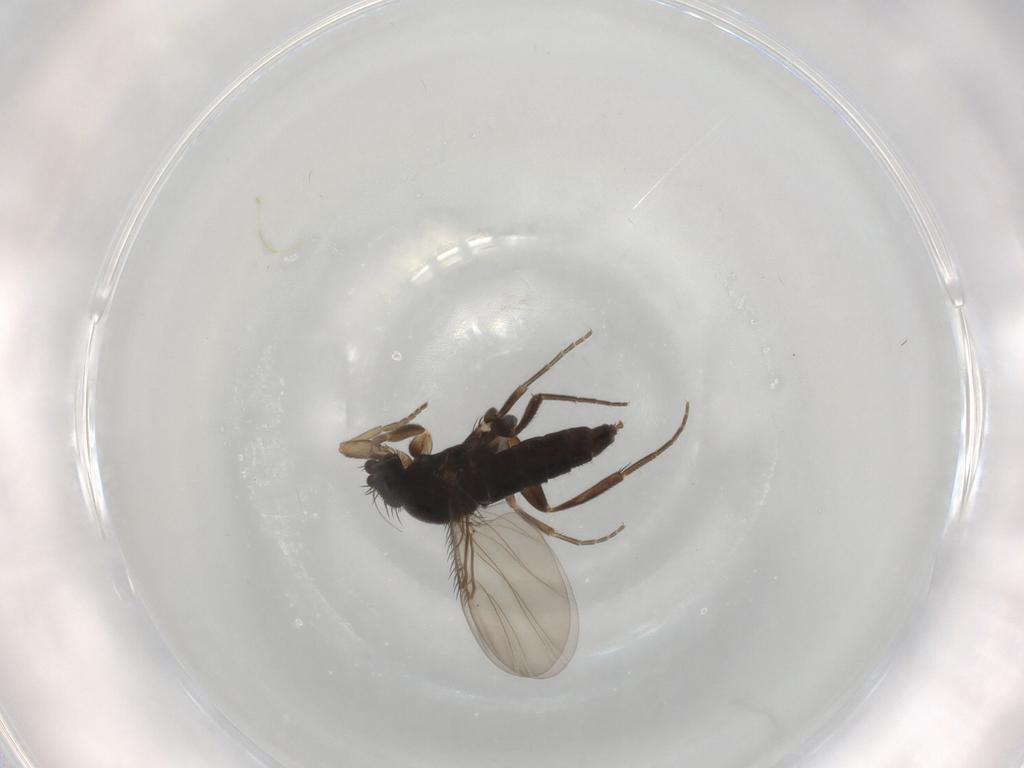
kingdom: Animalia
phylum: Arthropoda
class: Insecta
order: Diptera
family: Phoridae
